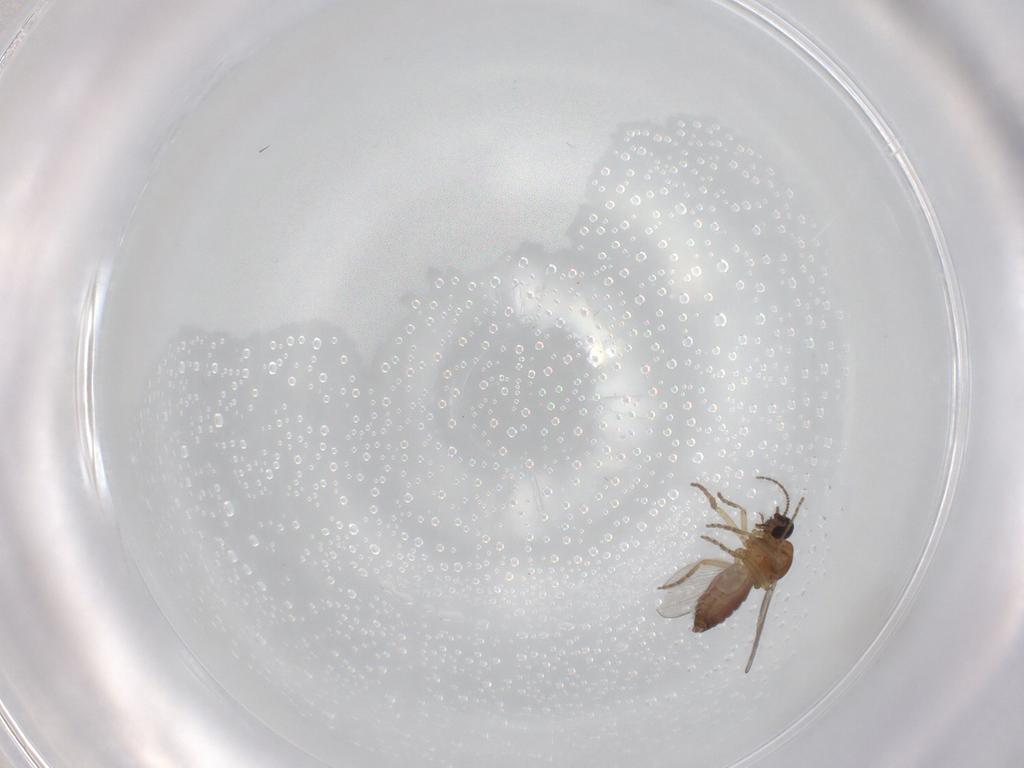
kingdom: Animalia
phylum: Arthropoda
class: Insecta
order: Diptera
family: Ceratopogonidae
